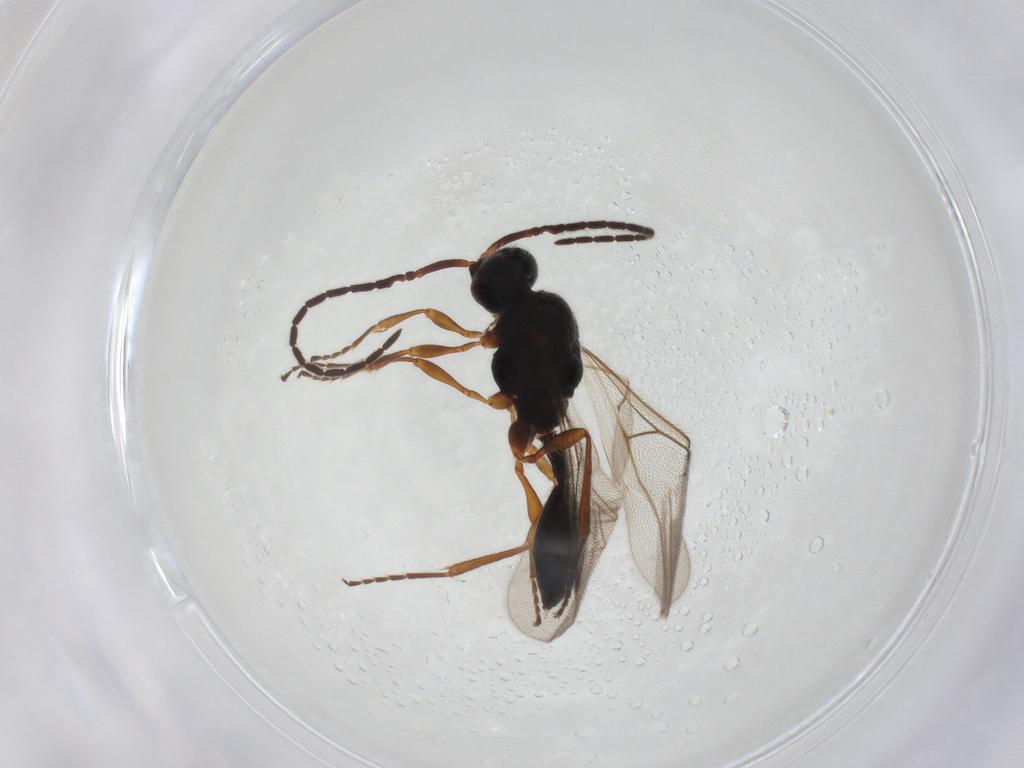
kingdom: Animalia
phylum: Arthropoda
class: Insecta
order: Hymenoptera
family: Diapriidae
